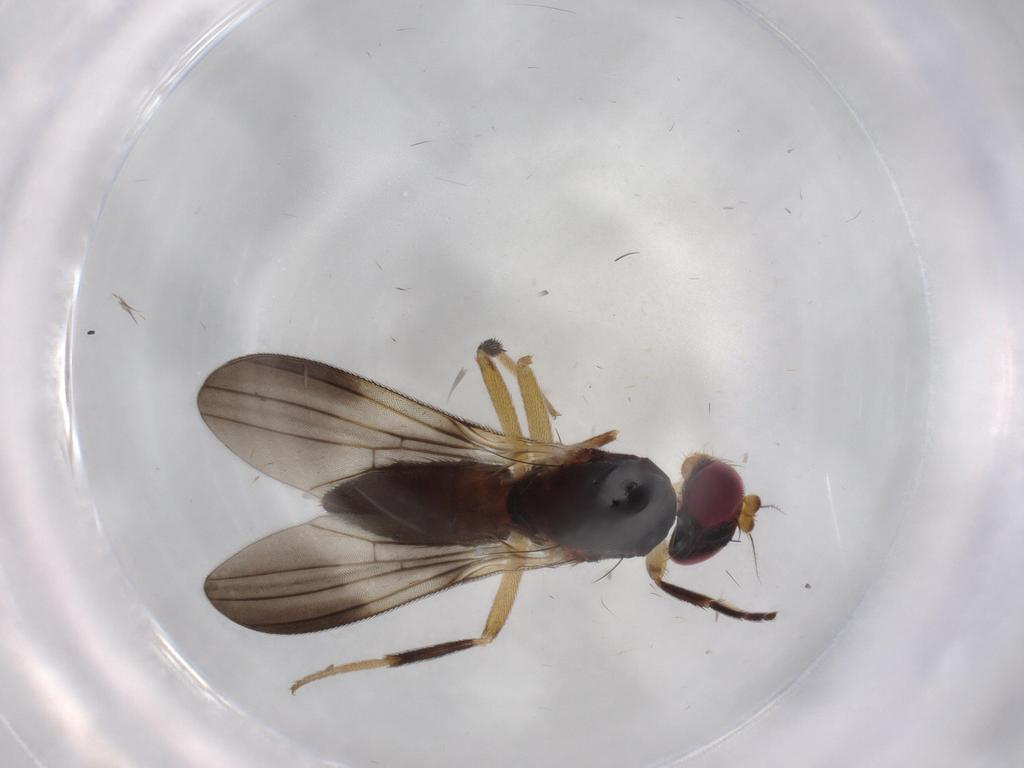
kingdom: Animalia
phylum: Arthropoda
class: Insecta
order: Diptera
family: Clusiidae
